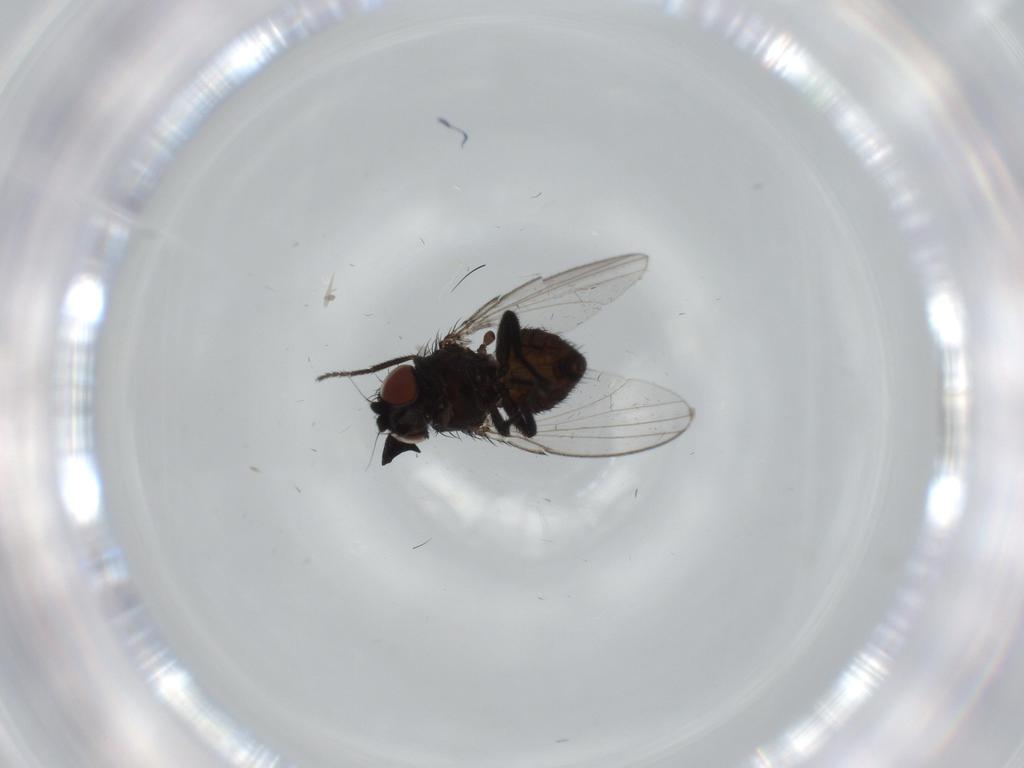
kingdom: Animalia
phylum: Arthropoda
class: Insecta
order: Diptera
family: Milichiidae
